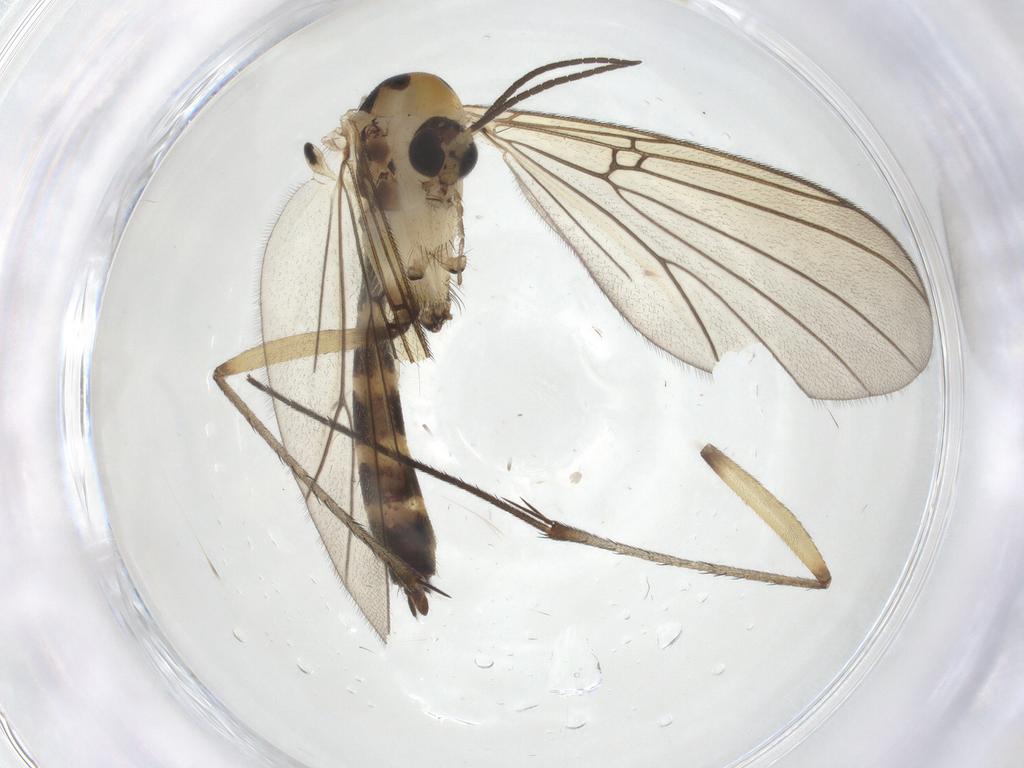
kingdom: Animalia
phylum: Arthropoda
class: Insecta
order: Diptera
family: Mycetophilidae
